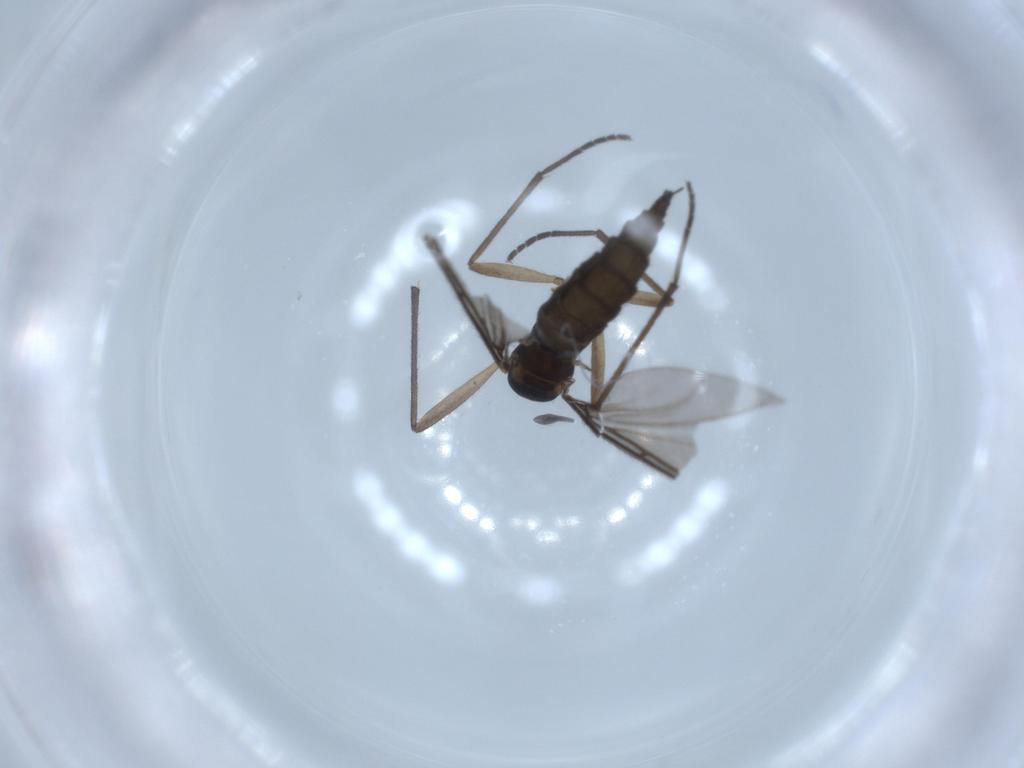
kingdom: Animalia
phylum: Arthropoda
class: Insecta
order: Diptera
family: Sciaridae
